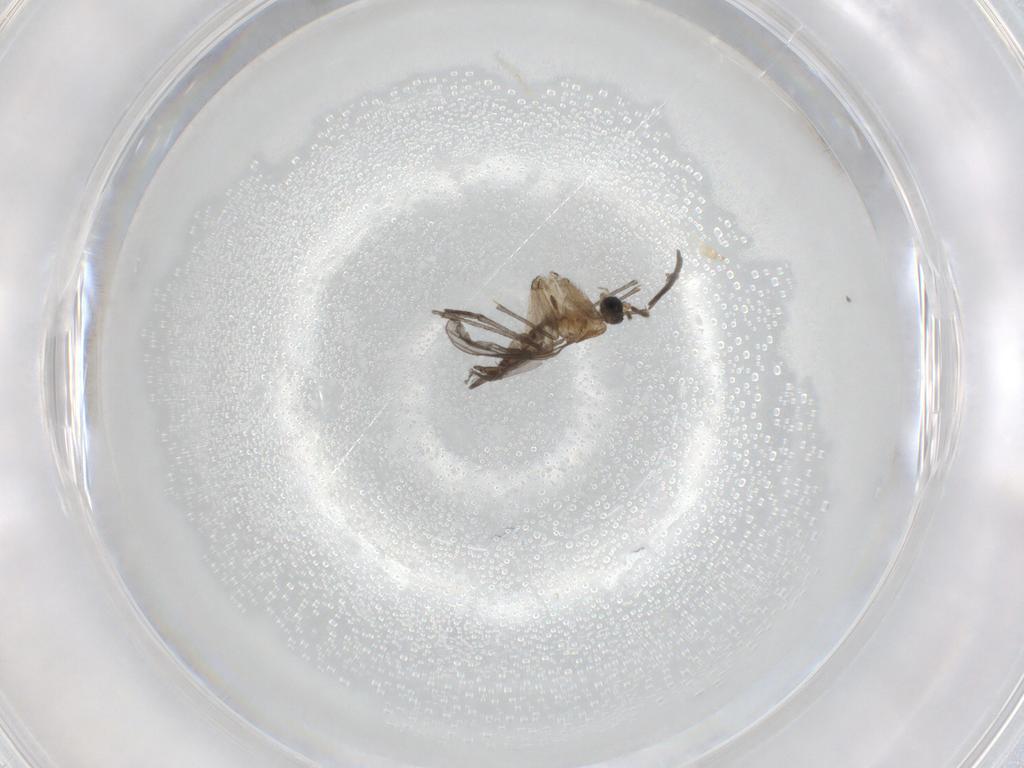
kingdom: Animalia
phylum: Arthropoda
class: Insecta
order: Diptera
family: Sciaridae
